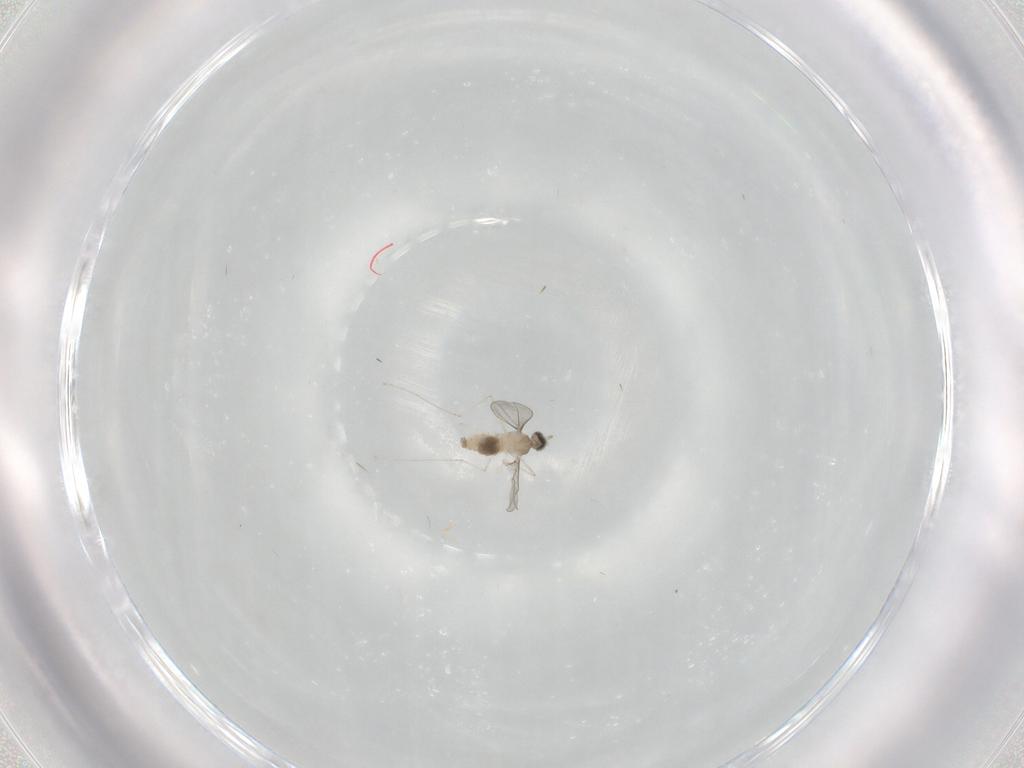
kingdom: Animalia
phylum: Arthropoda
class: Insecta
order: Diptera
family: Cecidomyiidae
